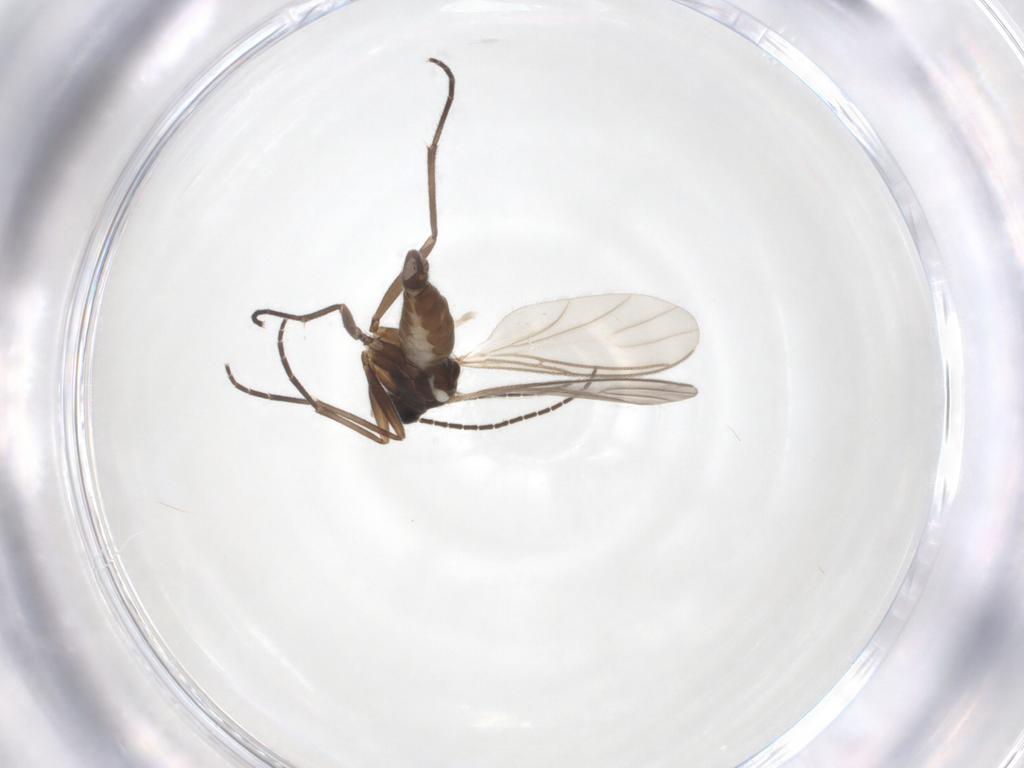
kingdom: Animalia
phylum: Arthropoda
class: Insecta
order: Diptera
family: Sciaridae
